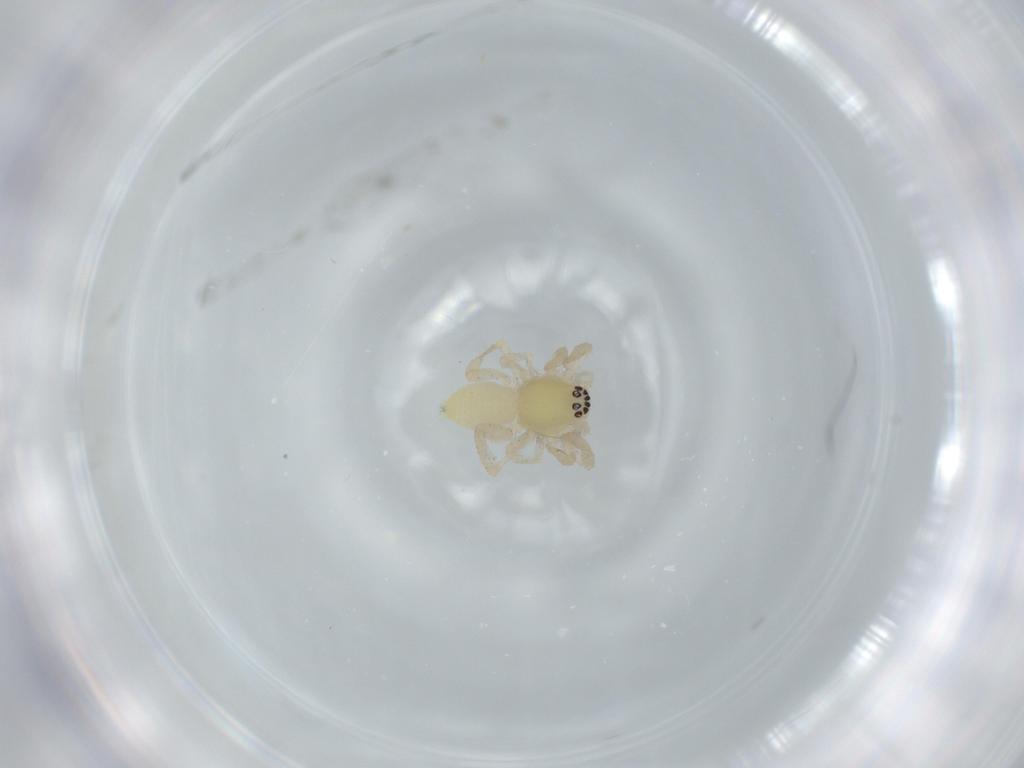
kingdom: Animalia
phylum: Arthropoda
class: Arachnida
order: Araneae
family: Anyphaenidae
